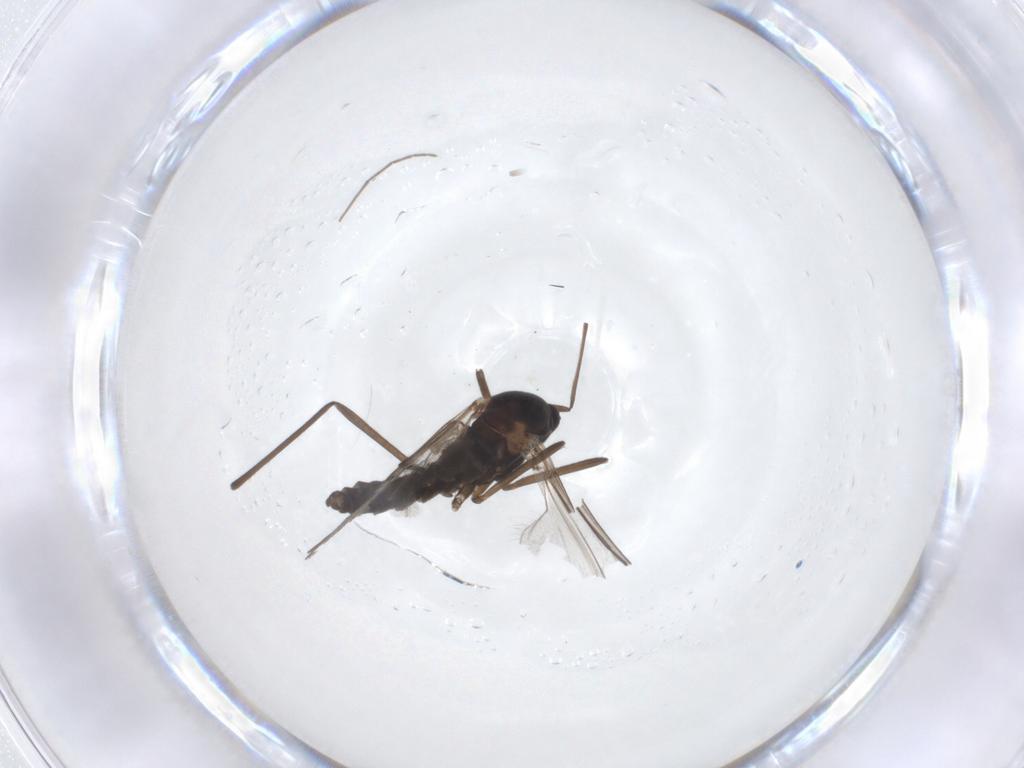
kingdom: Animalia
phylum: Arthropoda
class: Insecta
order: Diptera
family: Cecidomyiidae
